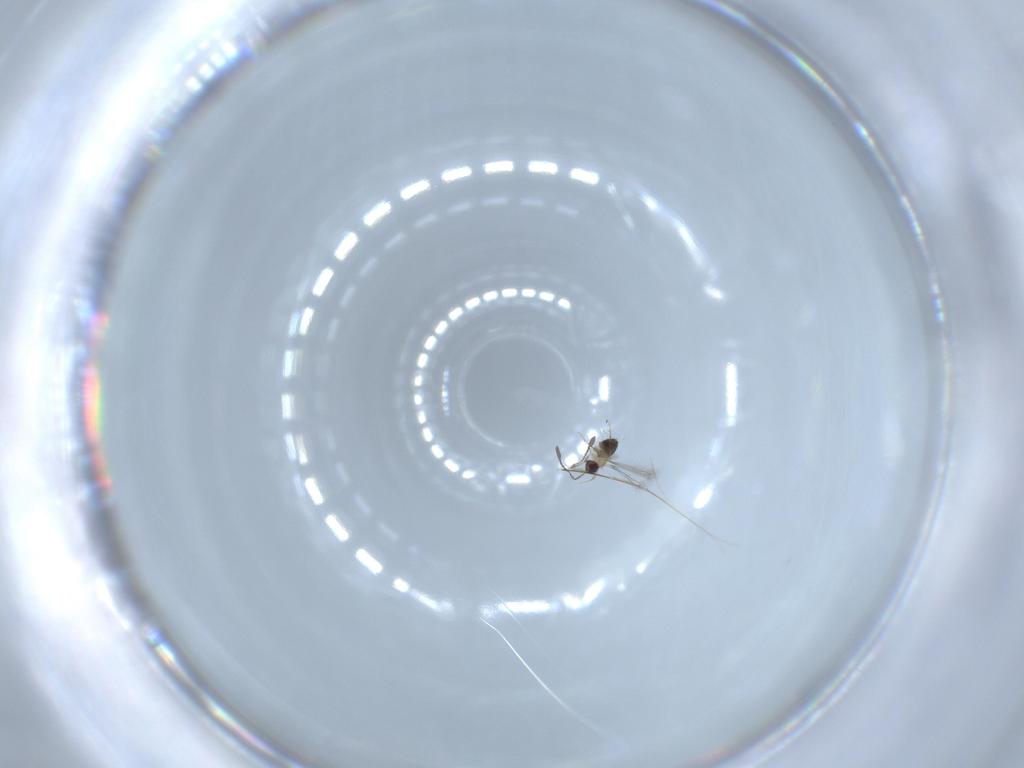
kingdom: Animalia
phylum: Arthropoda
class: Insecta
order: Hymenoptera
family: Mymaridae
